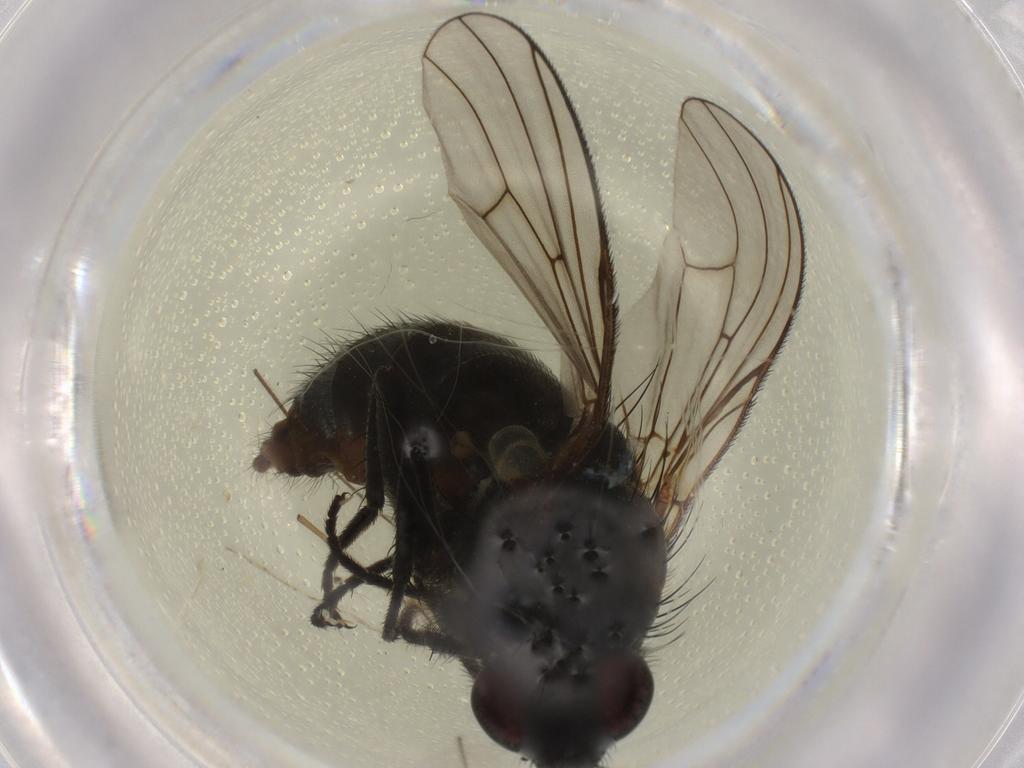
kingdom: Animalia
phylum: Arthropoda
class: Insecta
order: Diptera
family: Muscidae
